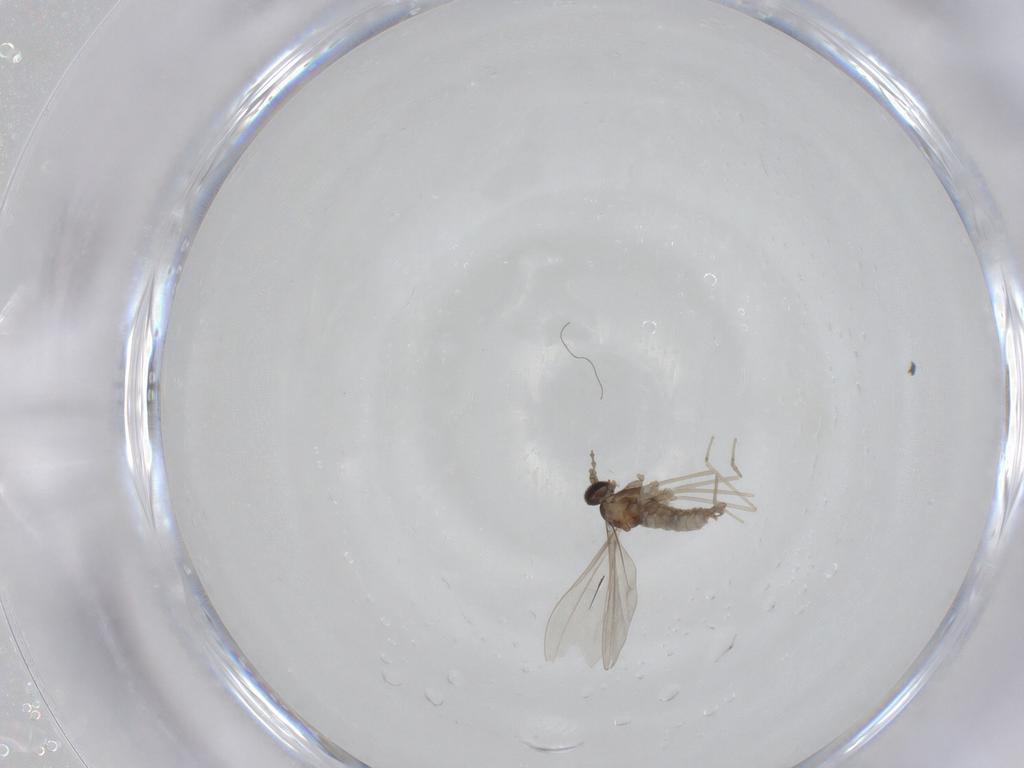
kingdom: Animalia
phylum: Arthropoda
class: Insecta
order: Diptera
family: Cecidomyiidae
